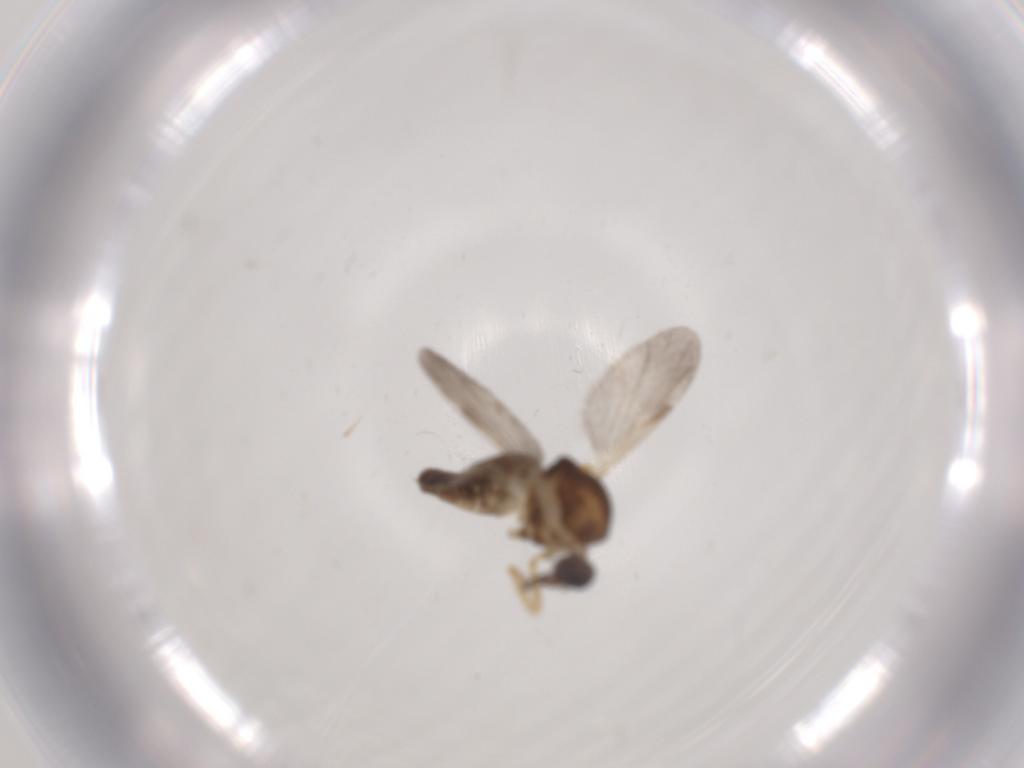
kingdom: Animalia
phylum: Arthropoda
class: Insecta
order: Diptera
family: Ceratopogonidae
